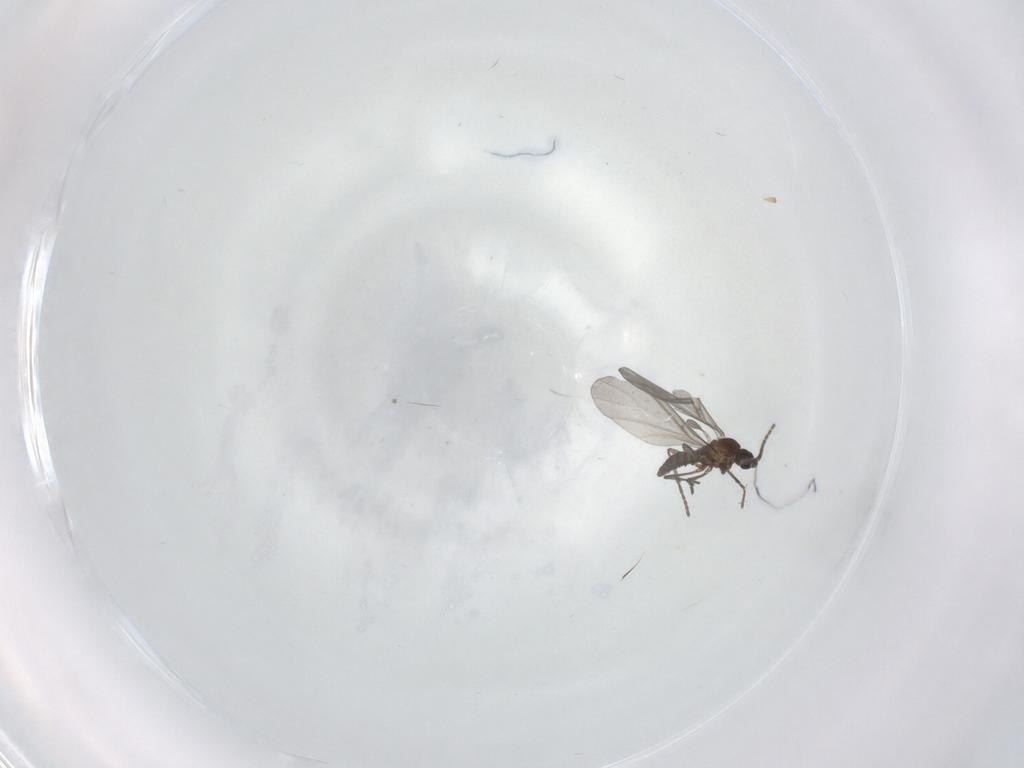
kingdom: Animalia
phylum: Arthropoda
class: Insecta
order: Diptera
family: Sciaridae
